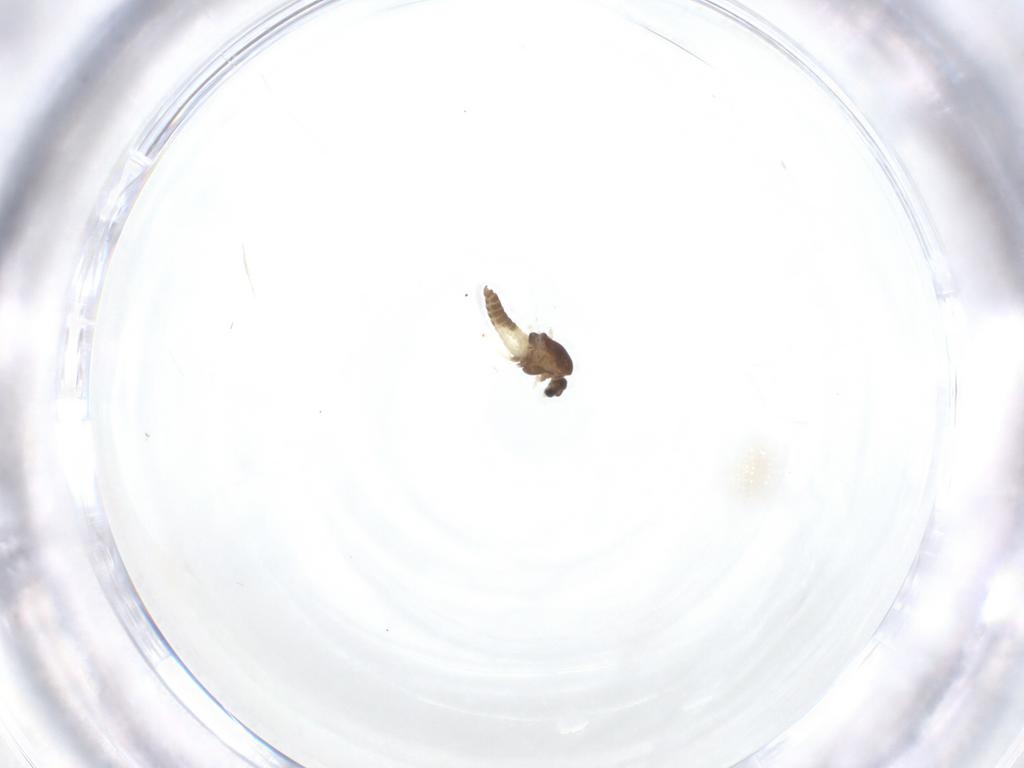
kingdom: Animalia
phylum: Arthropoda
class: Insecta
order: Diptera
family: Chironomidae
